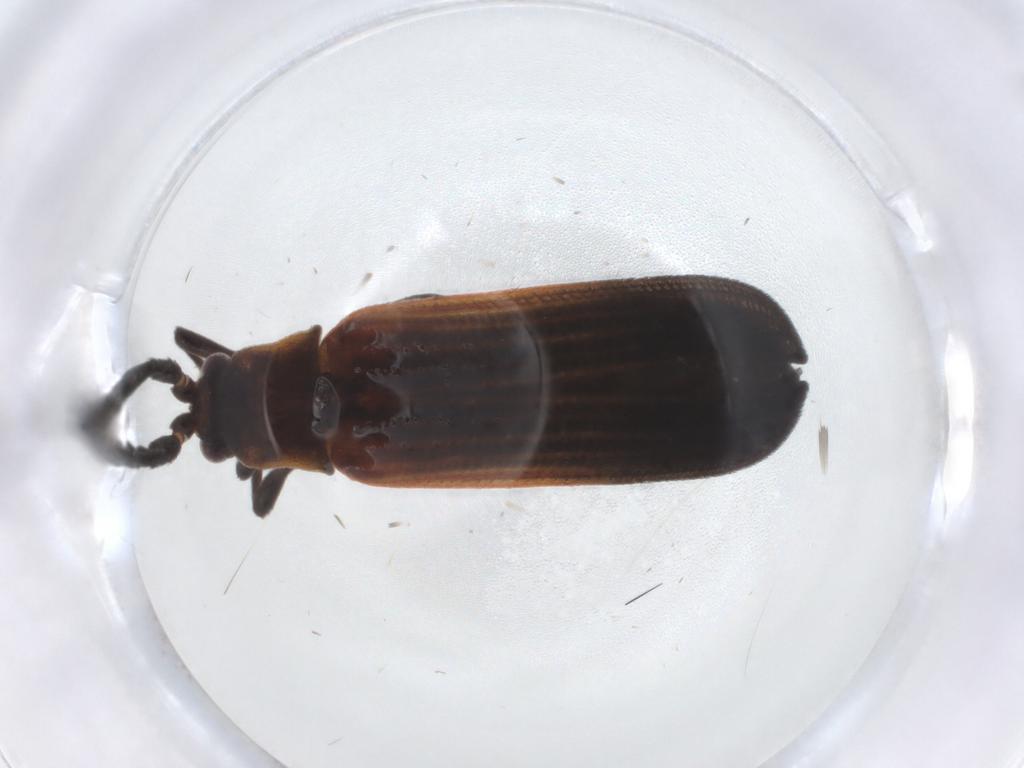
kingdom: Animalia
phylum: Arthropoda
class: Insecta
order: Coleoptera
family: Lycidae
